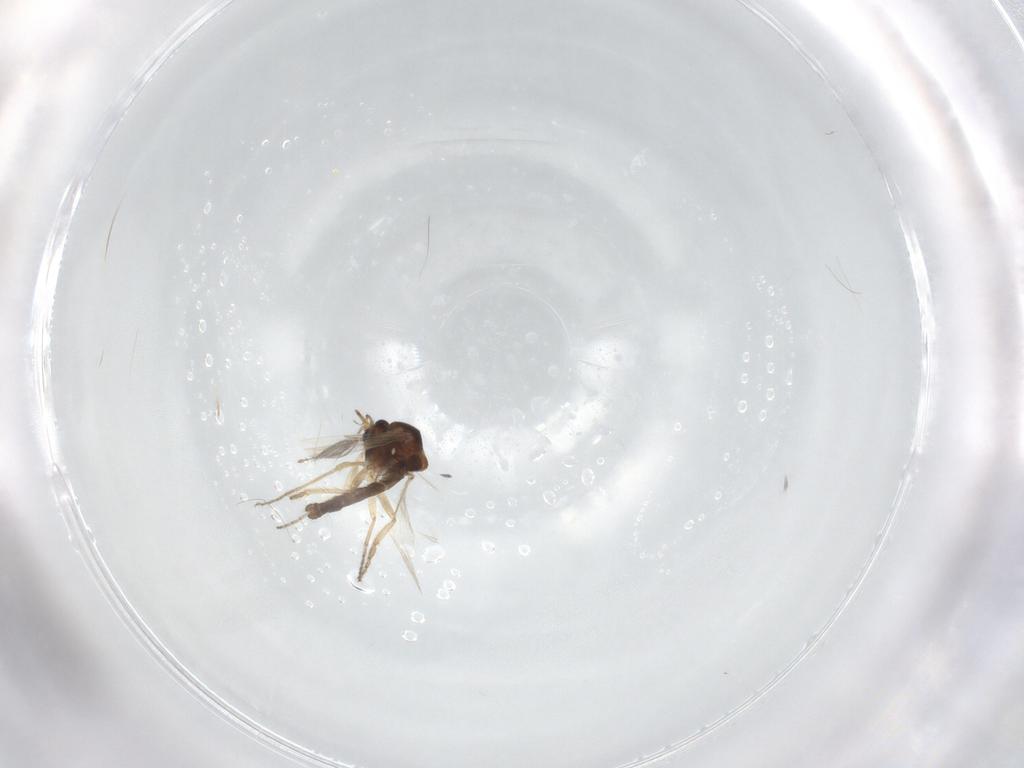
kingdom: Animalia
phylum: Arthropoda
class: Insecta
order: Diptera
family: Ceratopogonidae
